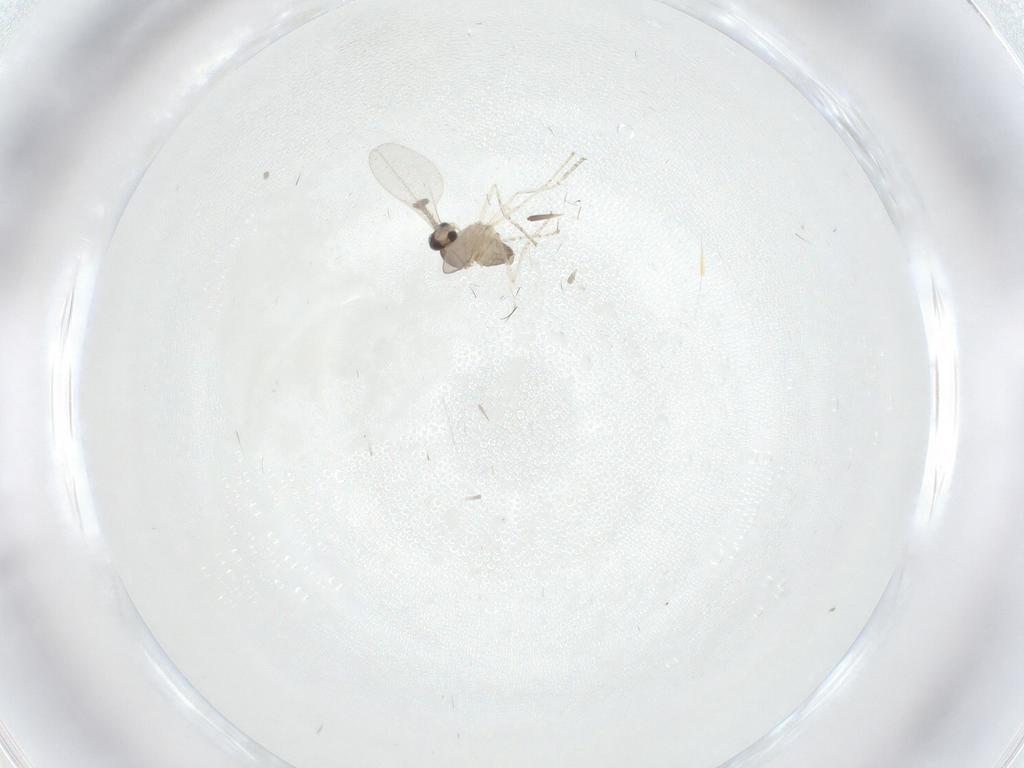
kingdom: Animalia
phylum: Arthropoda
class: Insecta
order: Diptera
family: Cecidomyiidae
